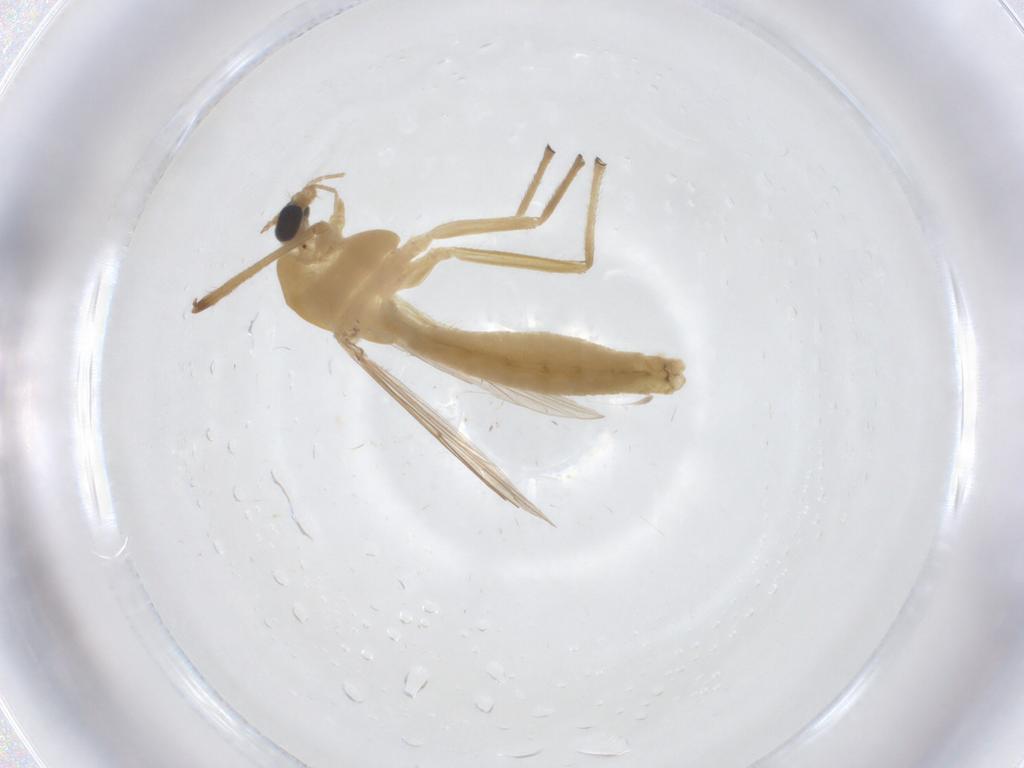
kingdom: Animalia
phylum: Arthropoda
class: Insecta
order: Diptera
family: Chironomidae
